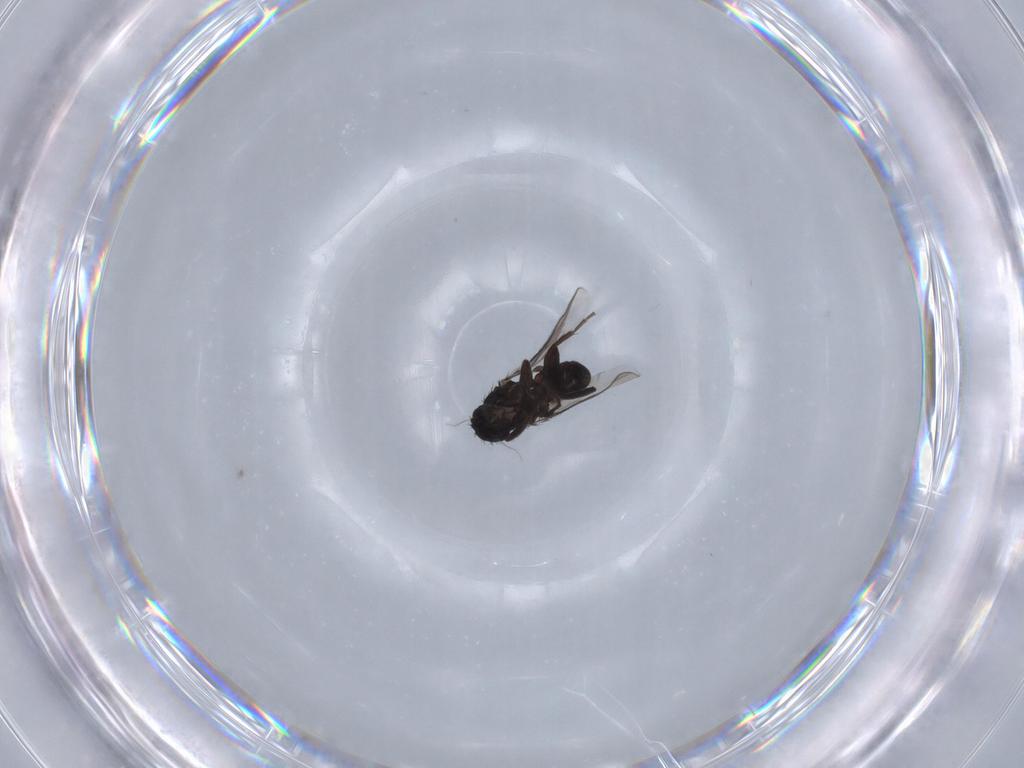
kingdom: Animalia
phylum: Arthropoda
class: Insecta
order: Diptera
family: Sphaeroceridae
